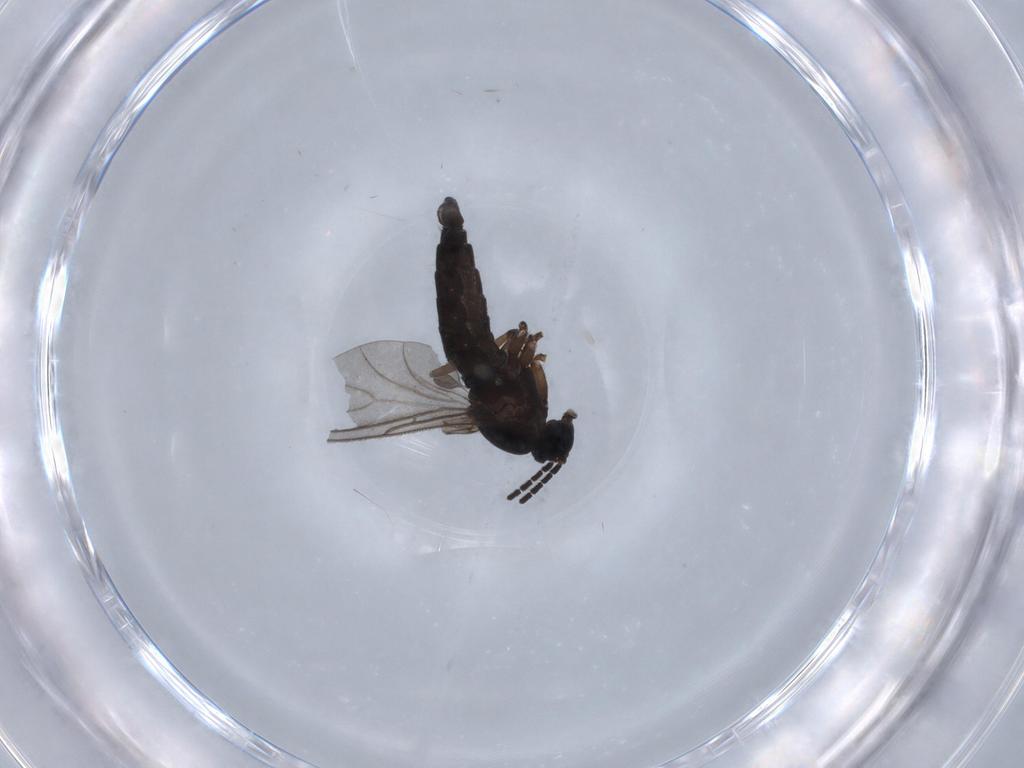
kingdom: Animalia
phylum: Arthropoda
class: Insecta
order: Diptera
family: Sciaridae
